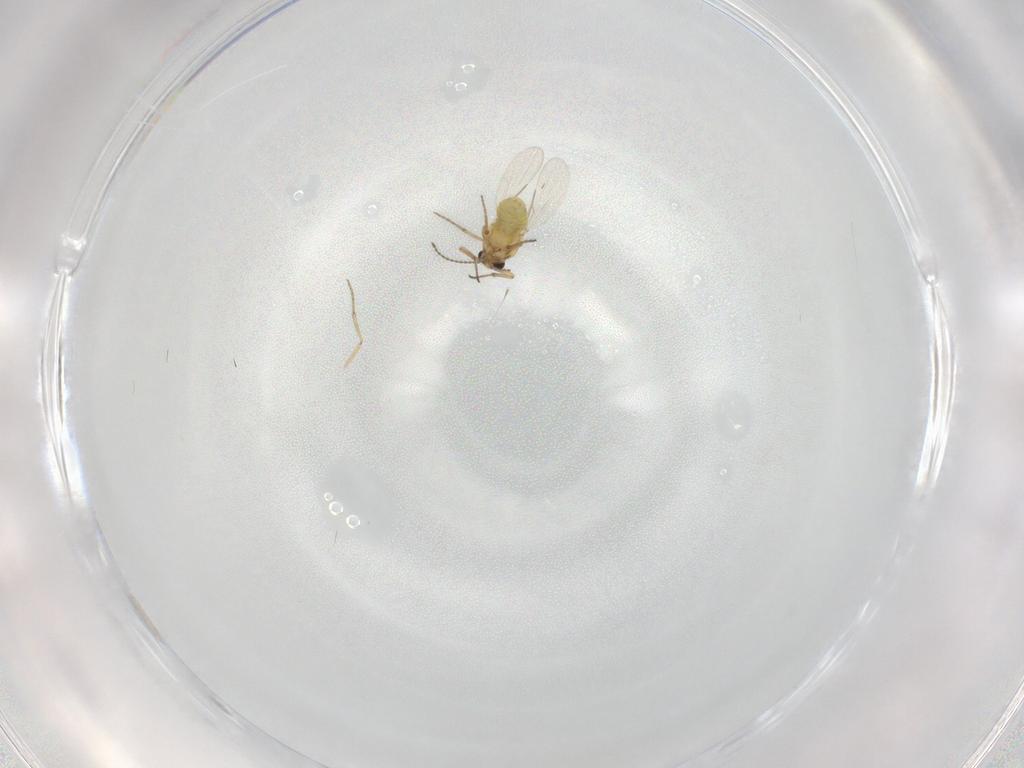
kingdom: Animalia
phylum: Arthropoda
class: Insecta
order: Diptera
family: Ceratopogonidae
